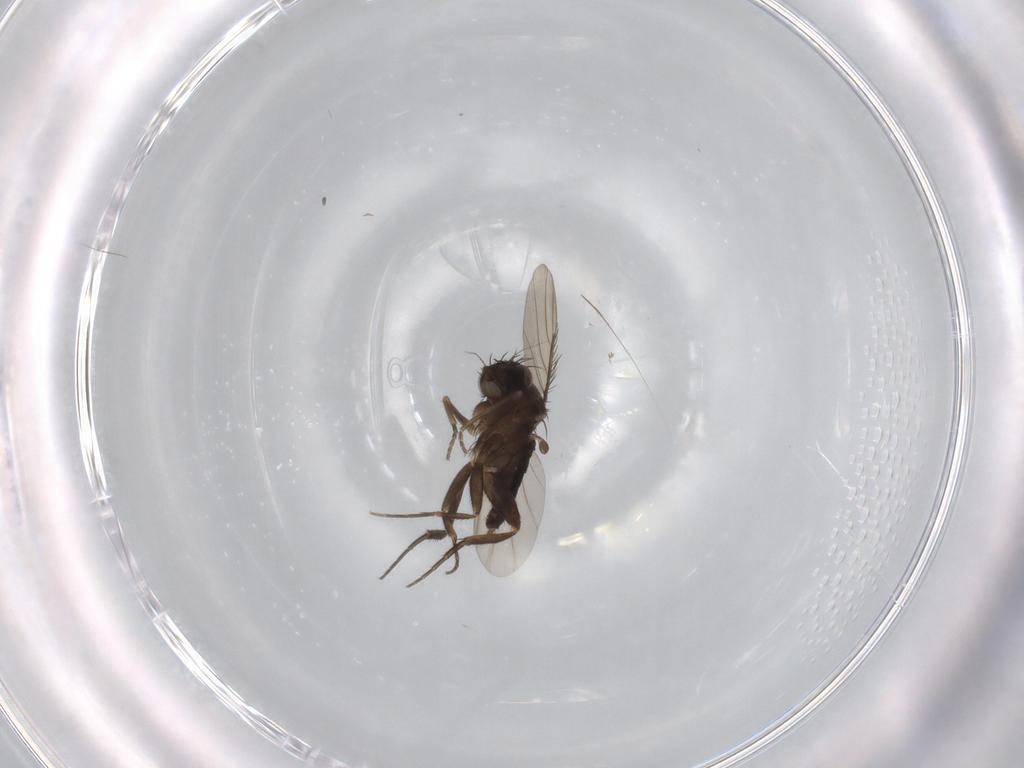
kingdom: Animalia
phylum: Arthropoda
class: Insecta
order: Diptera
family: Phoridae
